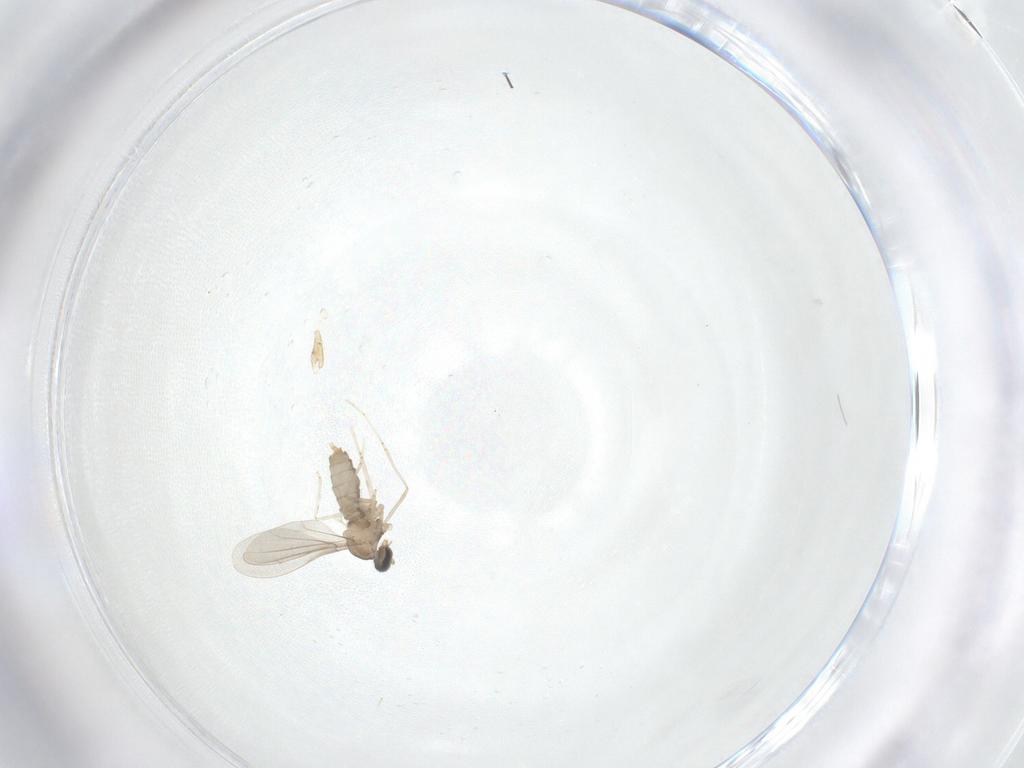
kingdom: Animalia
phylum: Arthropoda
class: Insecta
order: Diptera
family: Cecidomyiidae
